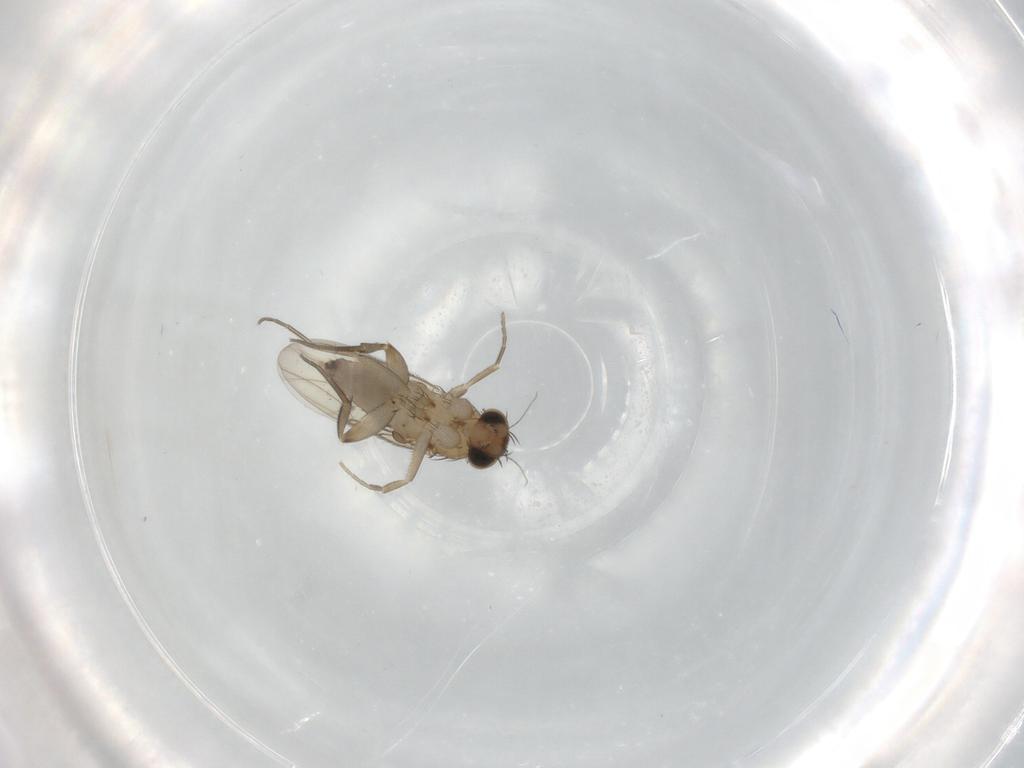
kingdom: Animalia
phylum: Arthropoda
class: Insecta
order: Diptera
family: Phoridae
